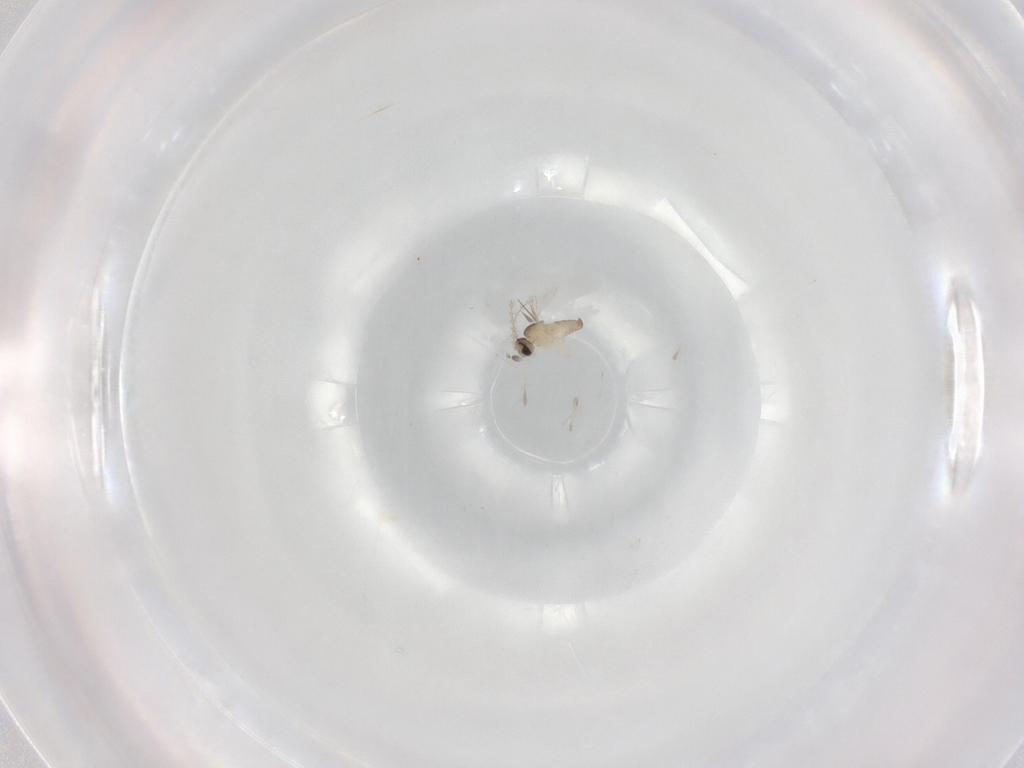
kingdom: Animalia
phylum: Arthropoda
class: Insecta
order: Diptera
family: Cecidomyiidae
